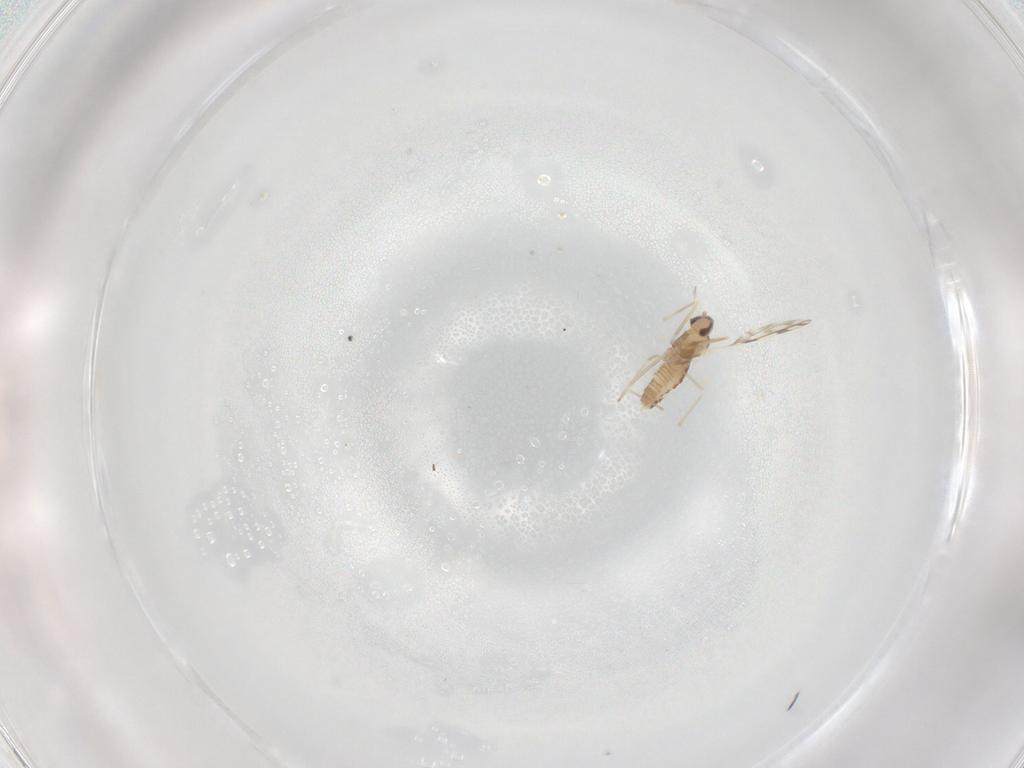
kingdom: Animalia
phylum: Arthropoda
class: Insecta
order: Diptera
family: Cecidomyiidae
